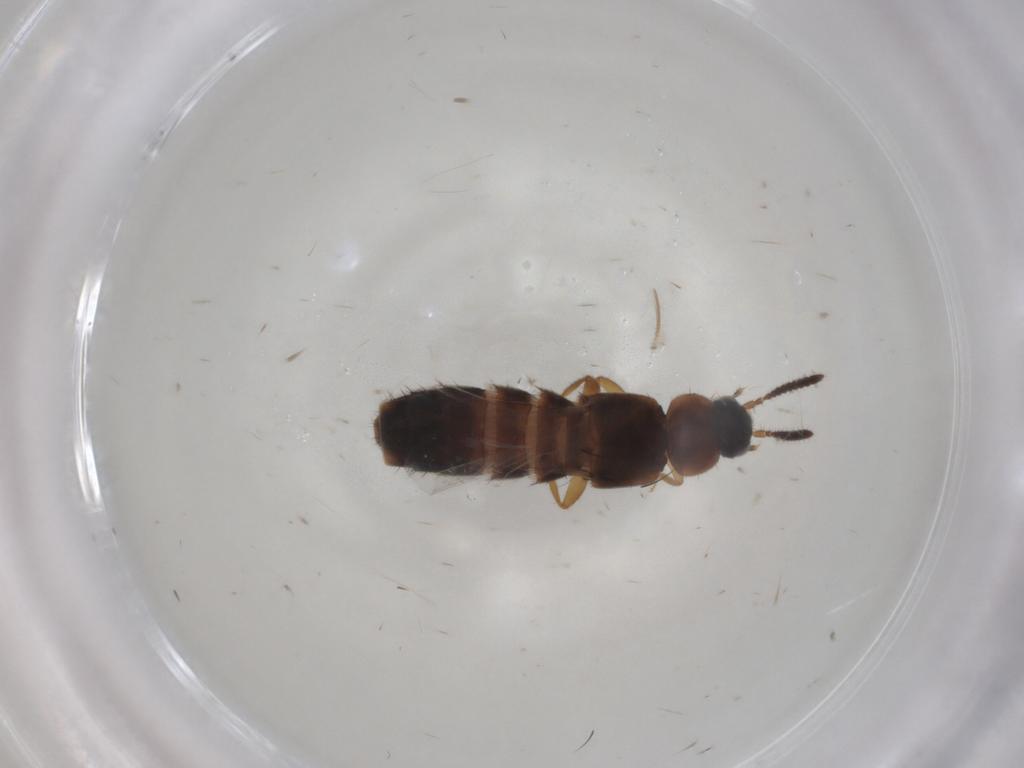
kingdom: Animalia
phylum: Arthropoda
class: Insecta
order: Coleoptera
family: Staphylinidae
